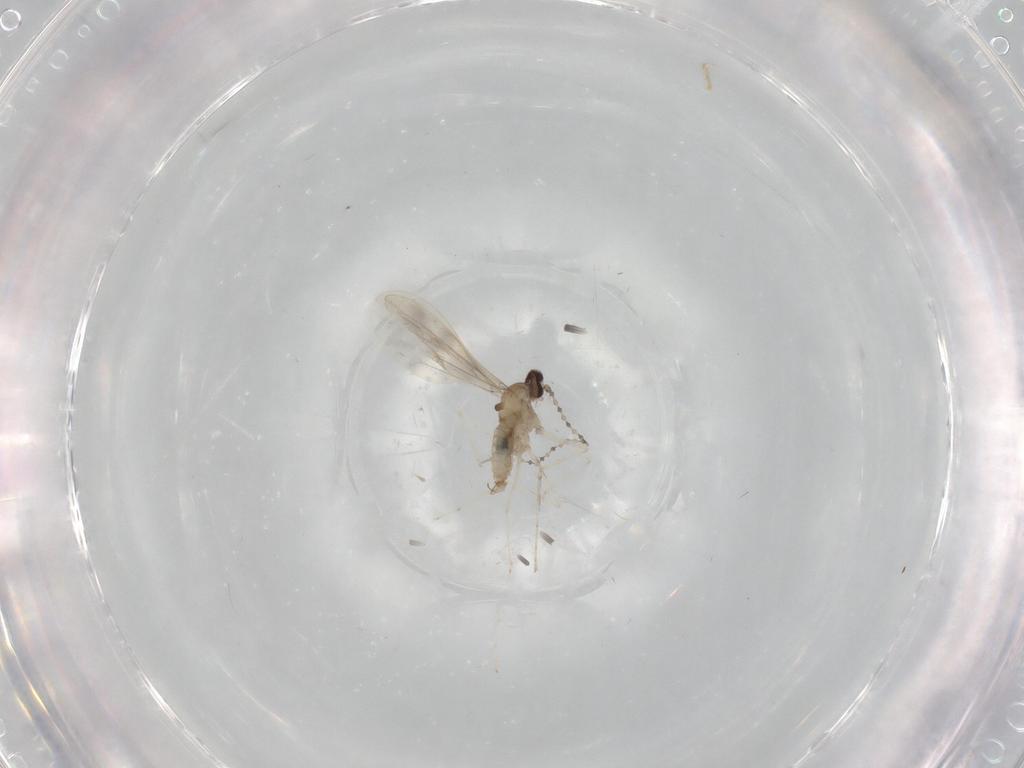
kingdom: Animalia
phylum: Arthropoda
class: Insecta
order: Diptera
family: Cecidomyiidae
